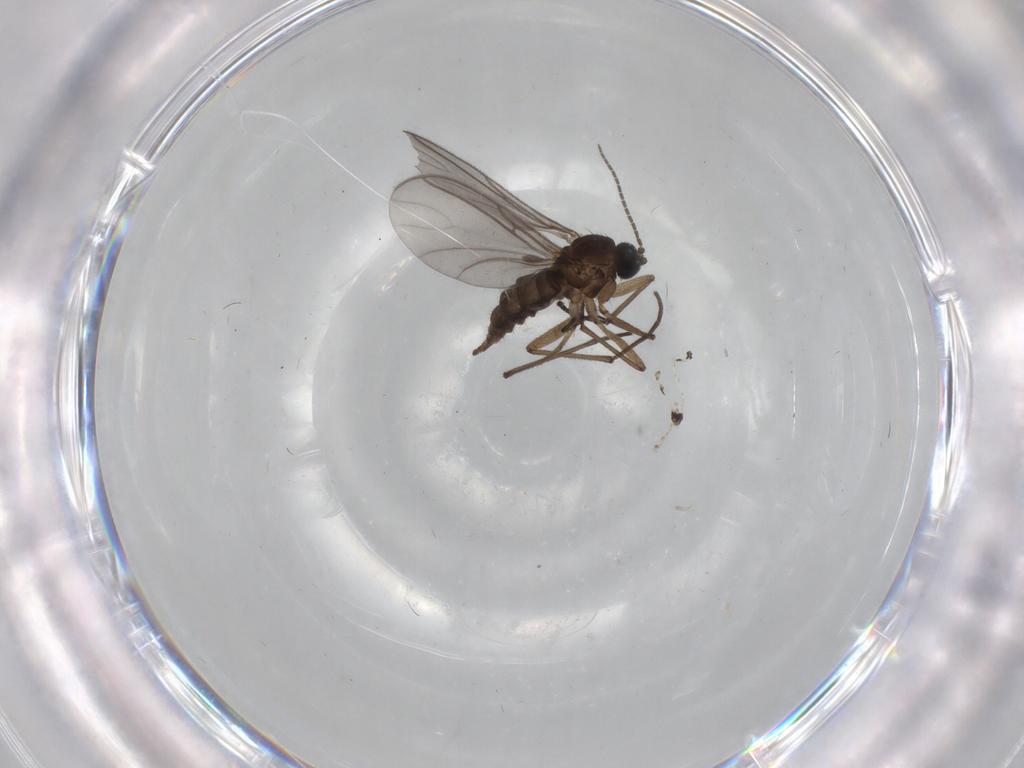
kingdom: Animalia
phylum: Arthropoda
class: Insecta
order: Diptera
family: Sciaridae
